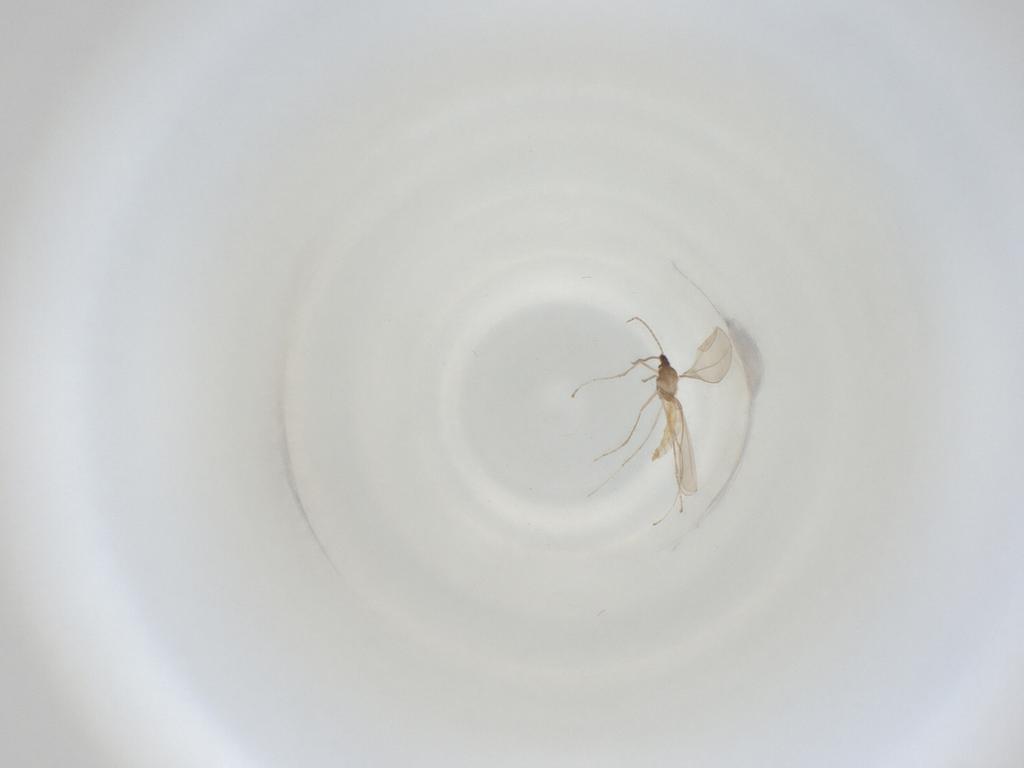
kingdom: Animalia
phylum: Arthropoda
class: Insecta
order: Diptera
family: Cecidomyiidae
